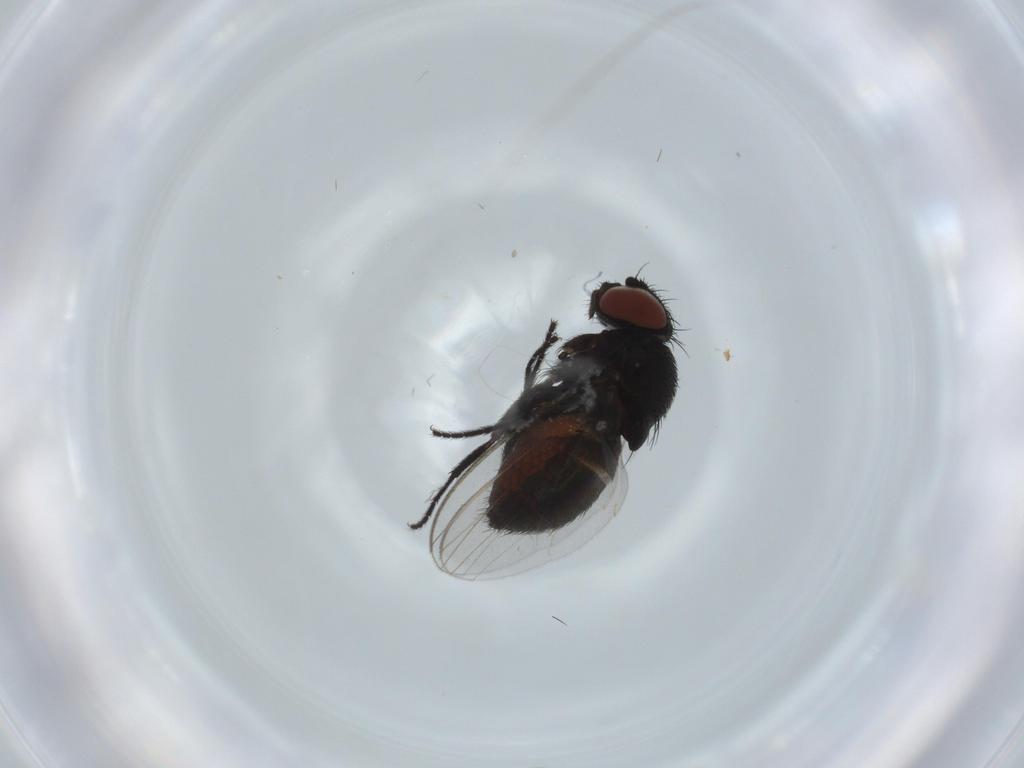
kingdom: Animalia
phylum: Arthropoda
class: Insecta
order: Diptera
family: Milichiidae
